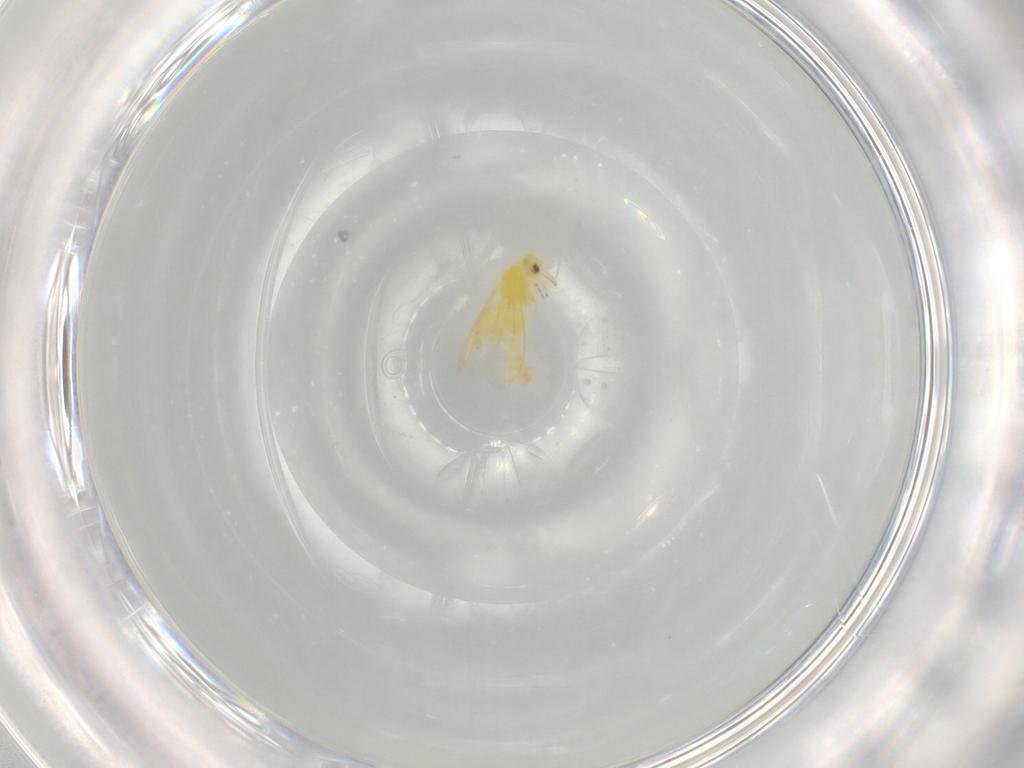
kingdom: Animalia
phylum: Arthropoda
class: Insecta
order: Hemiptera
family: Aleyrodidae
